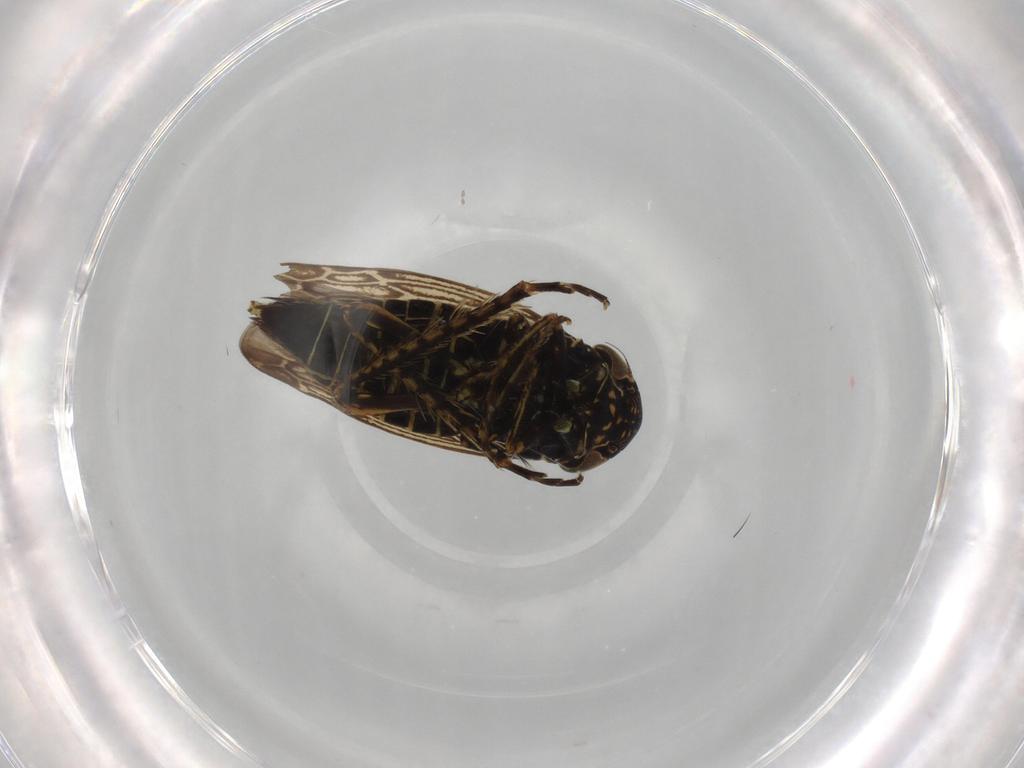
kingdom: Animalia
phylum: Arthropoda
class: Insecta
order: Hemiptera
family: Cicadellidae
